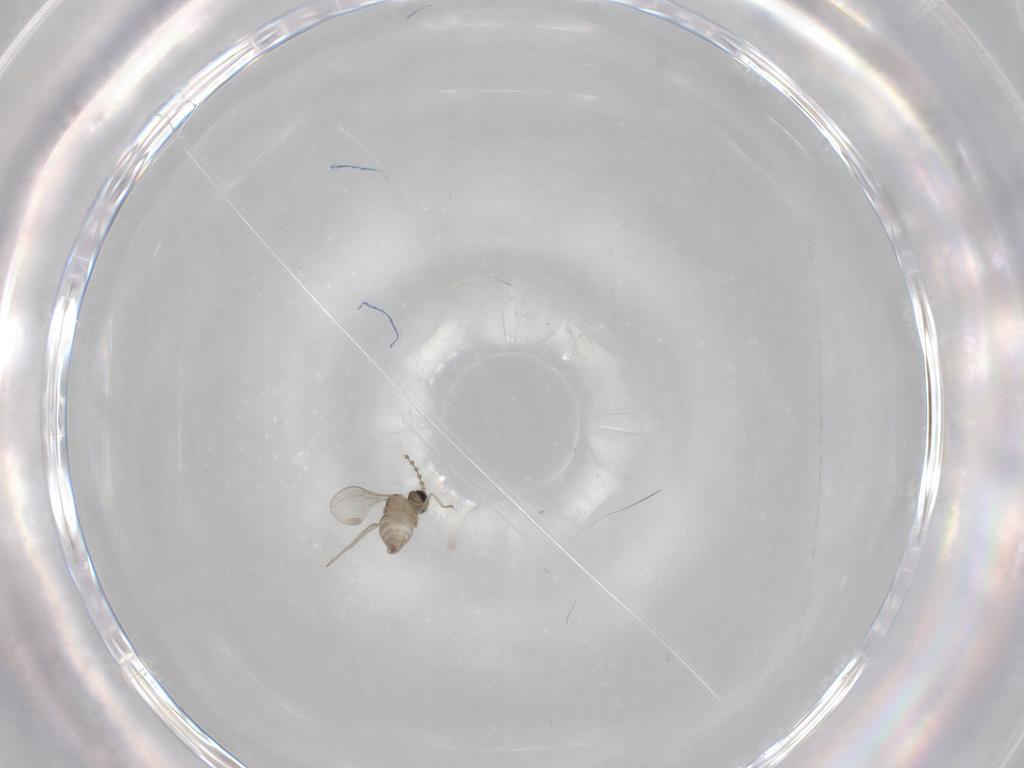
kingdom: Animalia
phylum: Arthropoda
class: Insecta
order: Diptera
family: Cecidomyiidae
